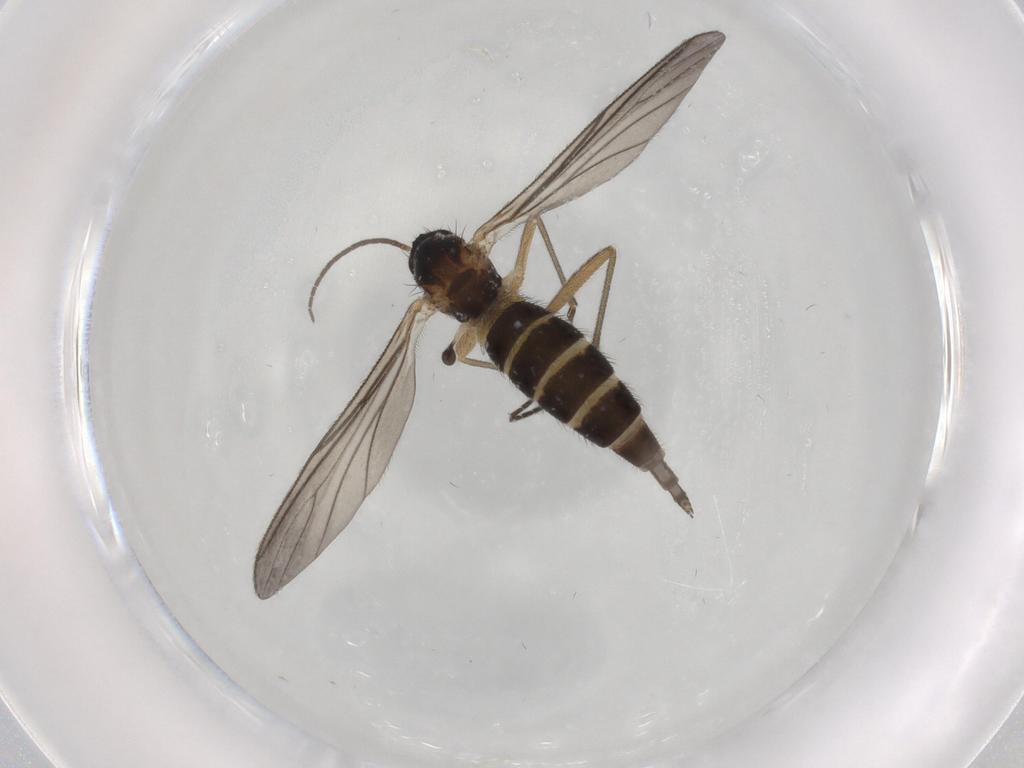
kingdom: Animalia
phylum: Arthropoda
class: Insecta
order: Diptera
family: Sciaridae
